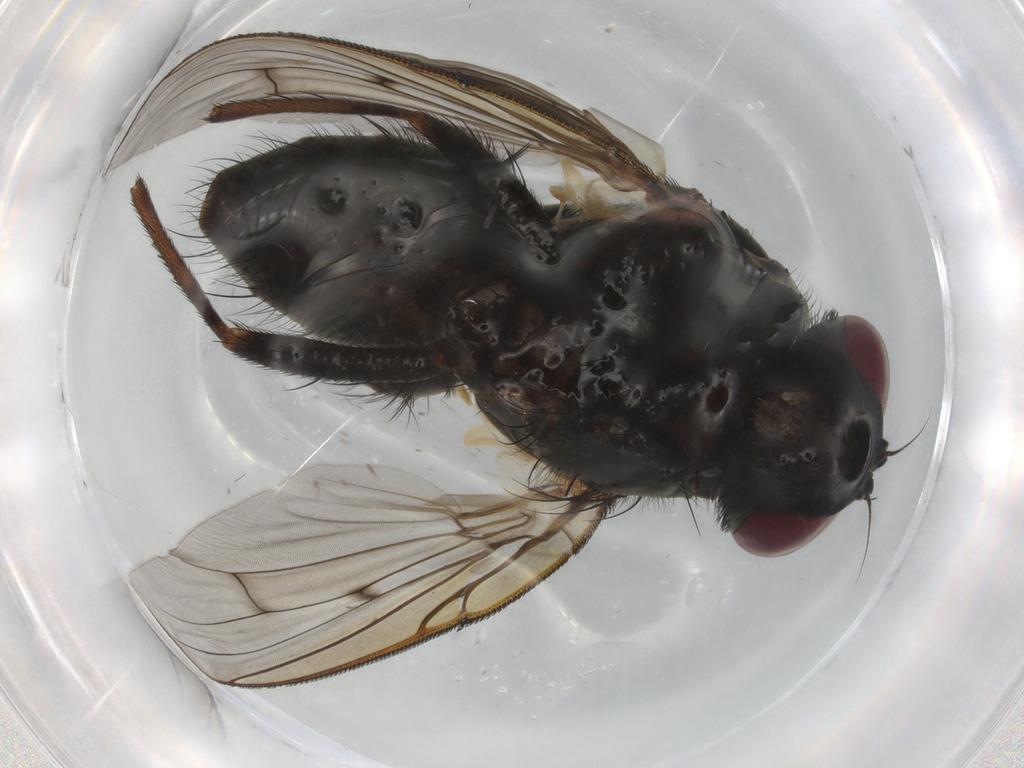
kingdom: Animalia
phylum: Arthropoda
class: Insecta
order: Diptera
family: Muscidae
